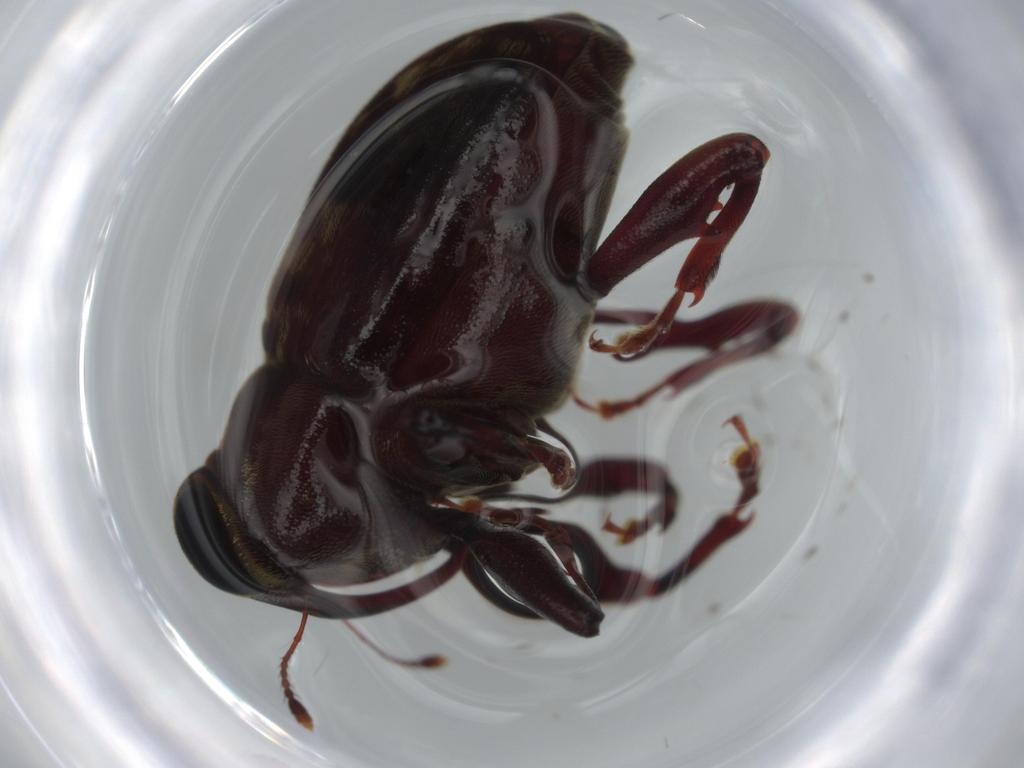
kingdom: Animalia
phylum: Arthropoda
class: Insecta
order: Coleoptera
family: Curculionidae
